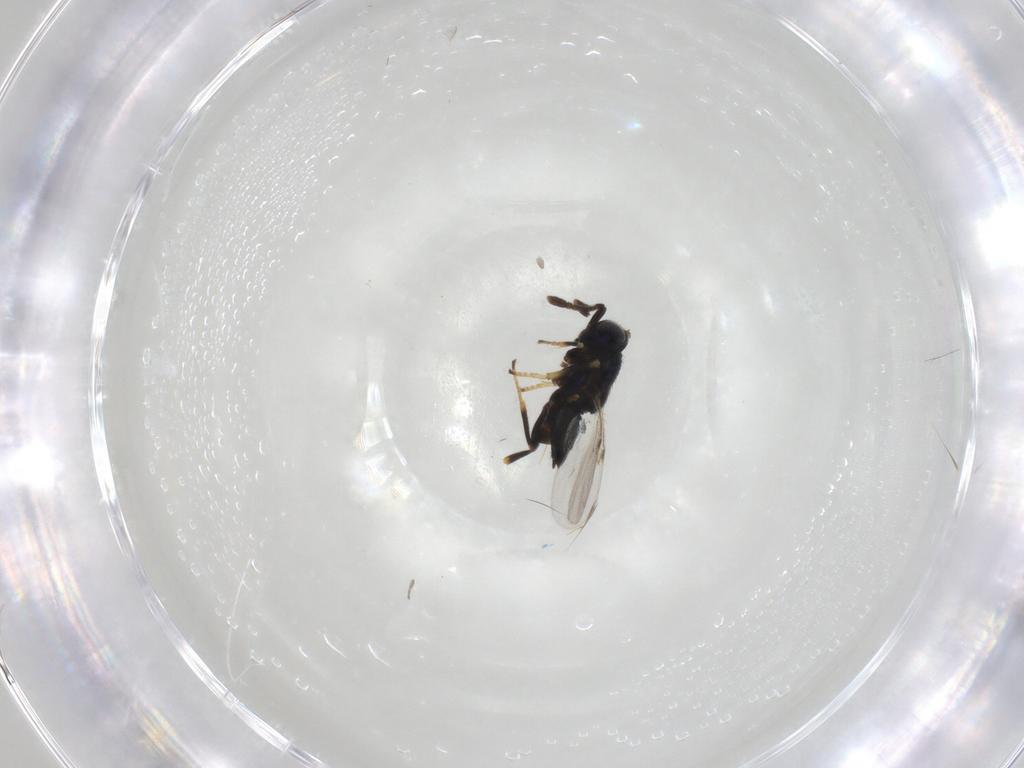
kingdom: Animalia
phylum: Arthropoda
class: Insecta
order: Hymenoptera
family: Encyrtidae
